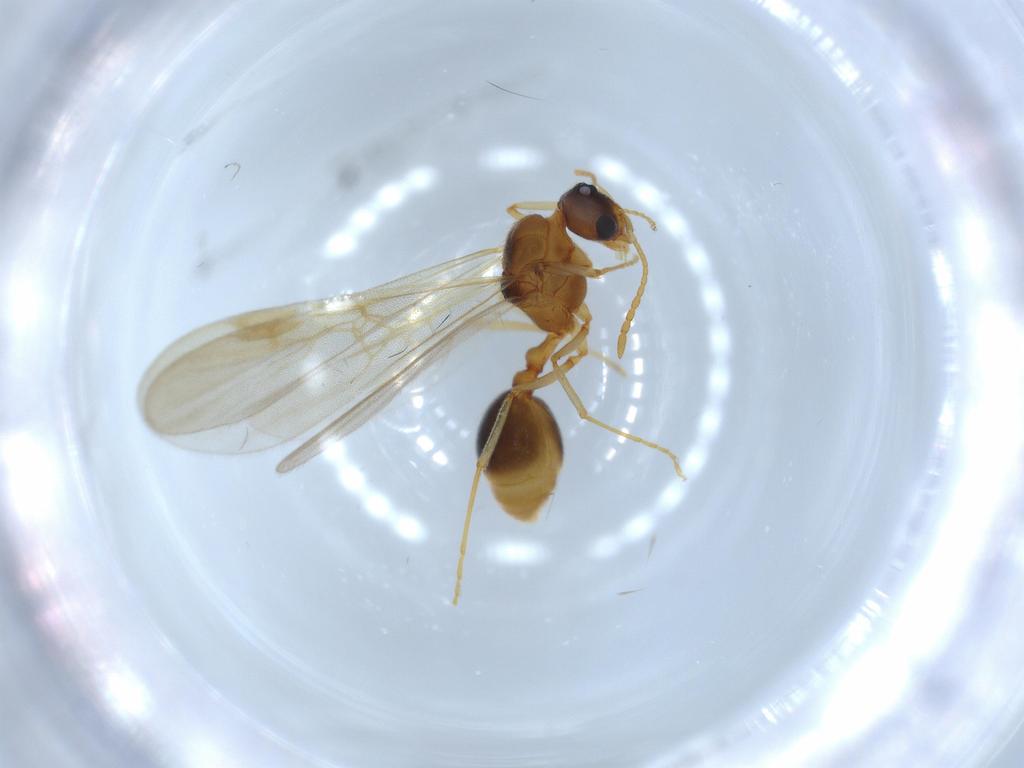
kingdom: Animalia
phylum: Arthropoda
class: Insecta
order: Hymenoptera
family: Formicidae
